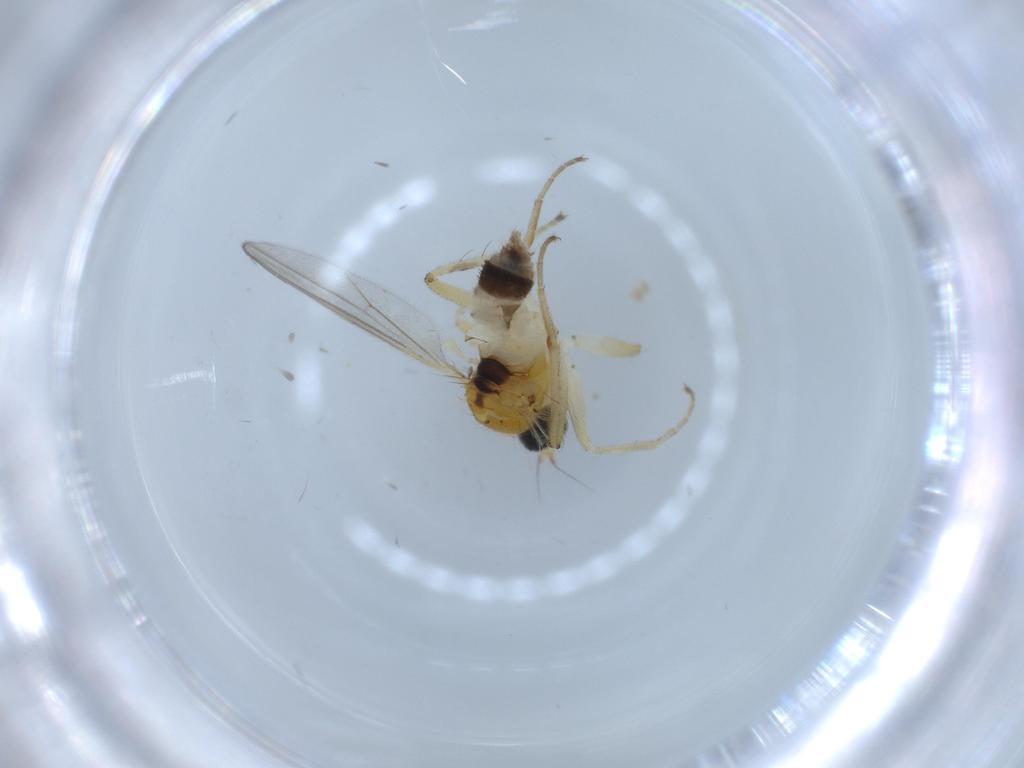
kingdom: Animalia
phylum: Arthropoda
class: Insecta
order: Diptera
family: Hybotidae
